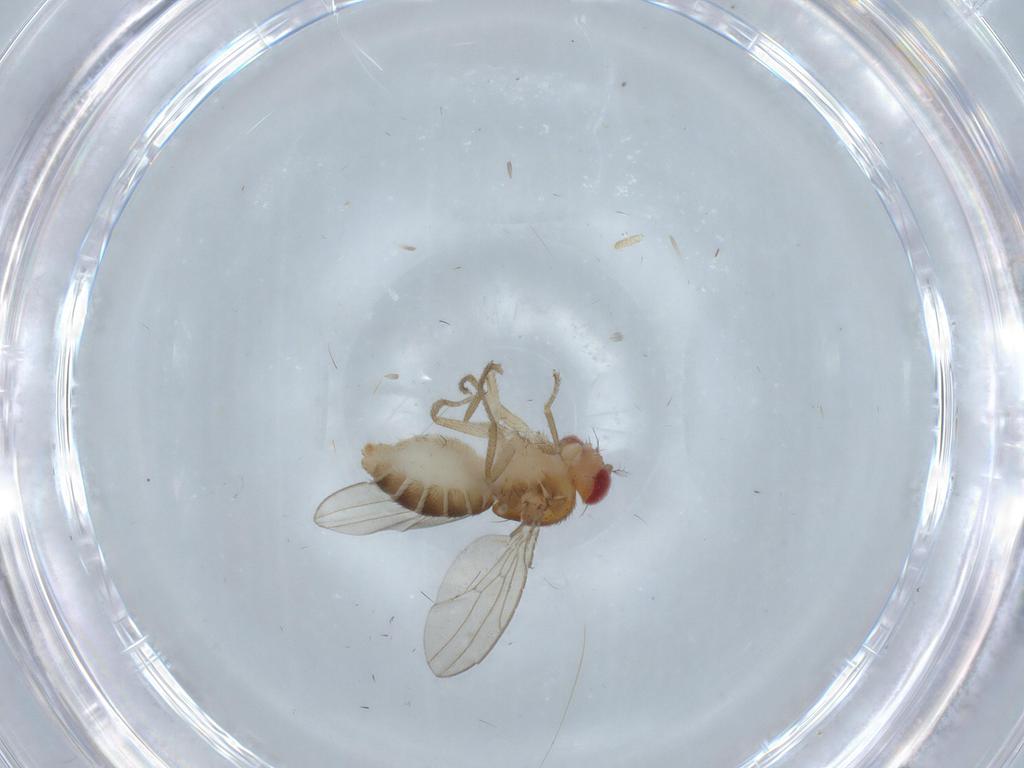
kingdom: Animalia
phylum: Arthropoda
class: Insecta
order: Diptera
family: Drosophilidae
